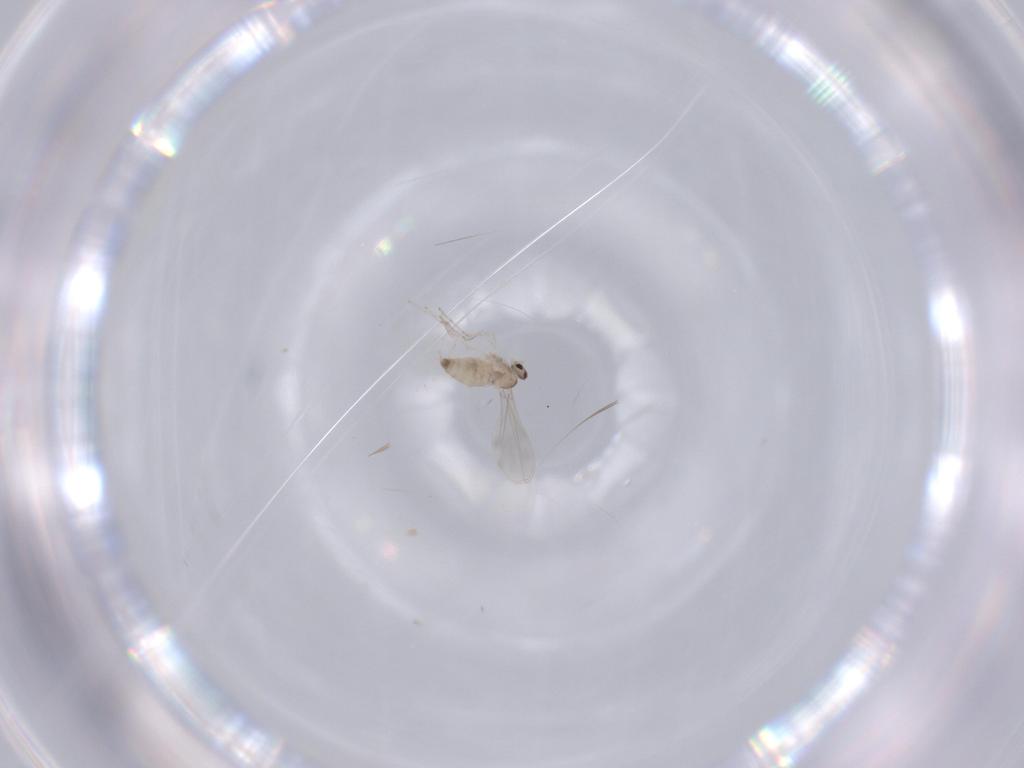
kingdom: Animalia
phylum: Arthropoda
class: Insecta
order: Diptera
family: Cecidomyiidae
